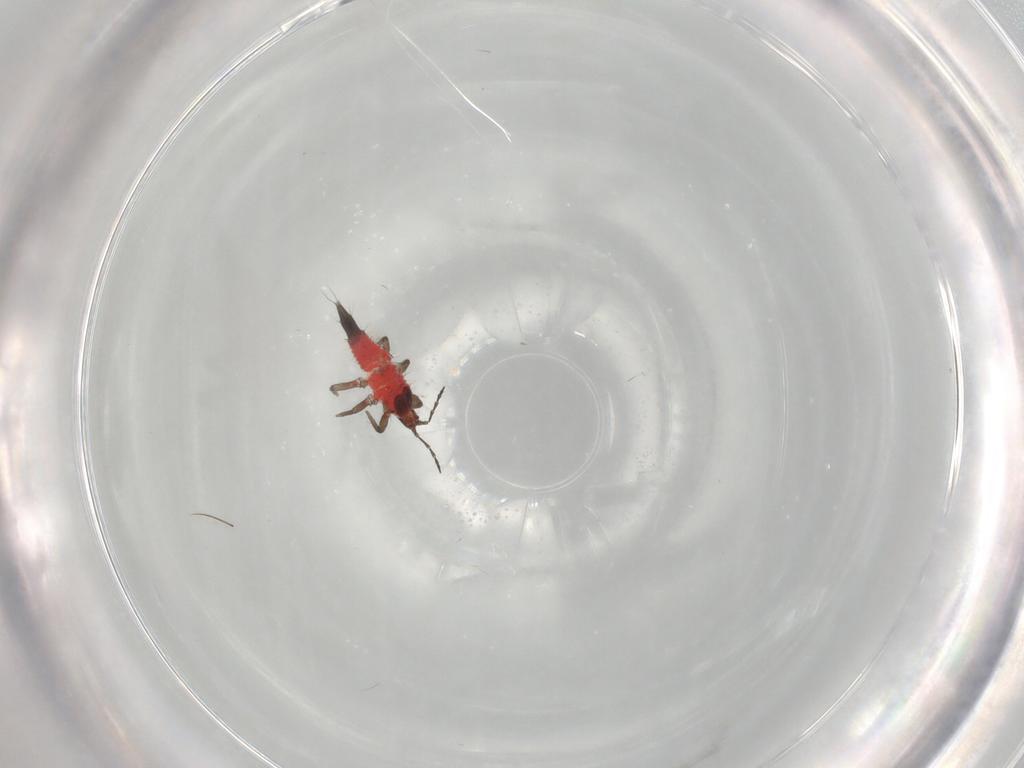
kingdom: Animalia
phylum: Arthropoda
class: Insecta
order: Thysanoptera
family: Phlaeothripidae
